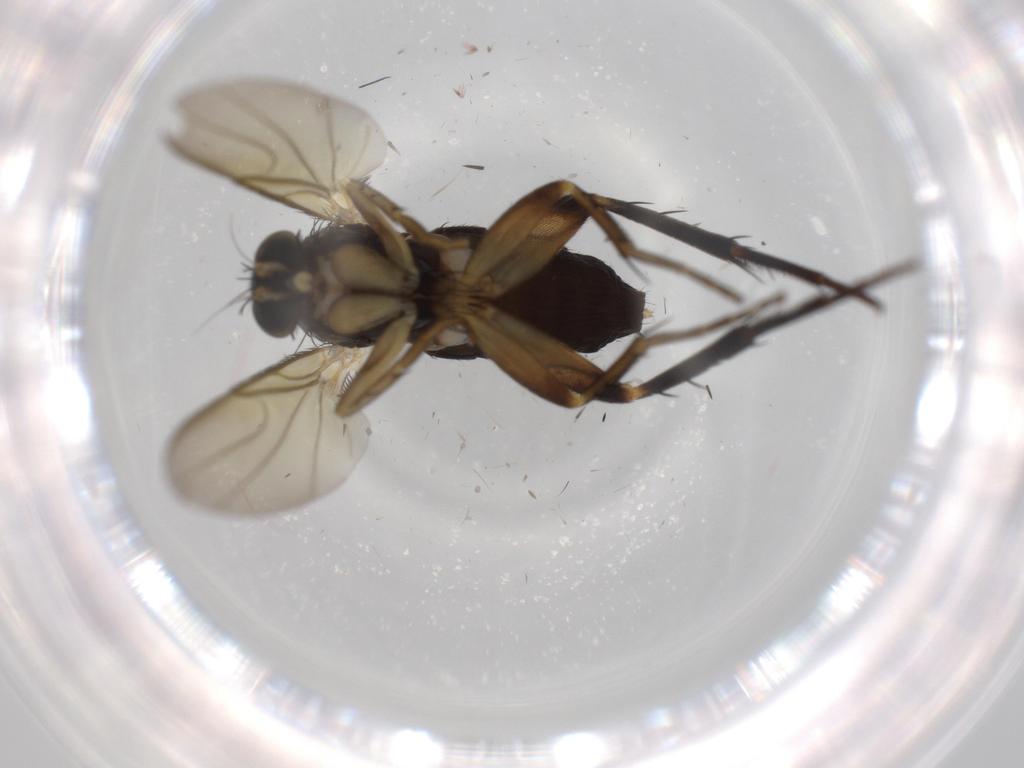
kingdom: Animalia
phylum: Arthropoda
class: Insecta
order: Diptera
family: Phoridae
